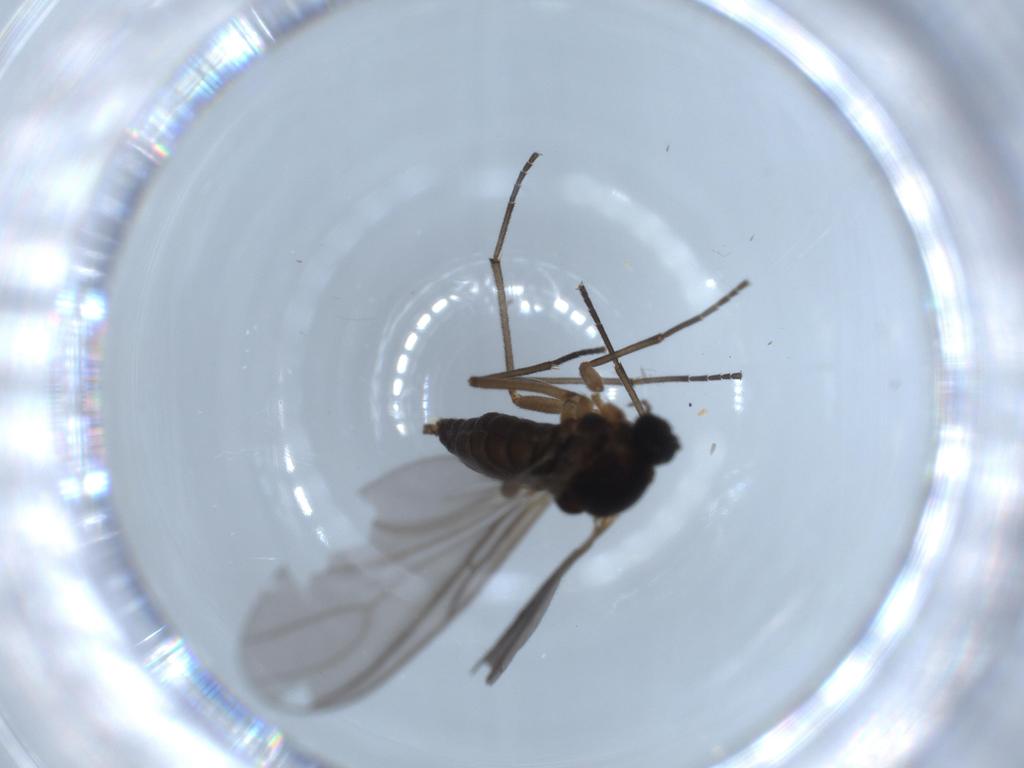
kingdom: Animalia
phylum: Arthropoda
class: Insecta
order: Diptera
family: Sciaridae
